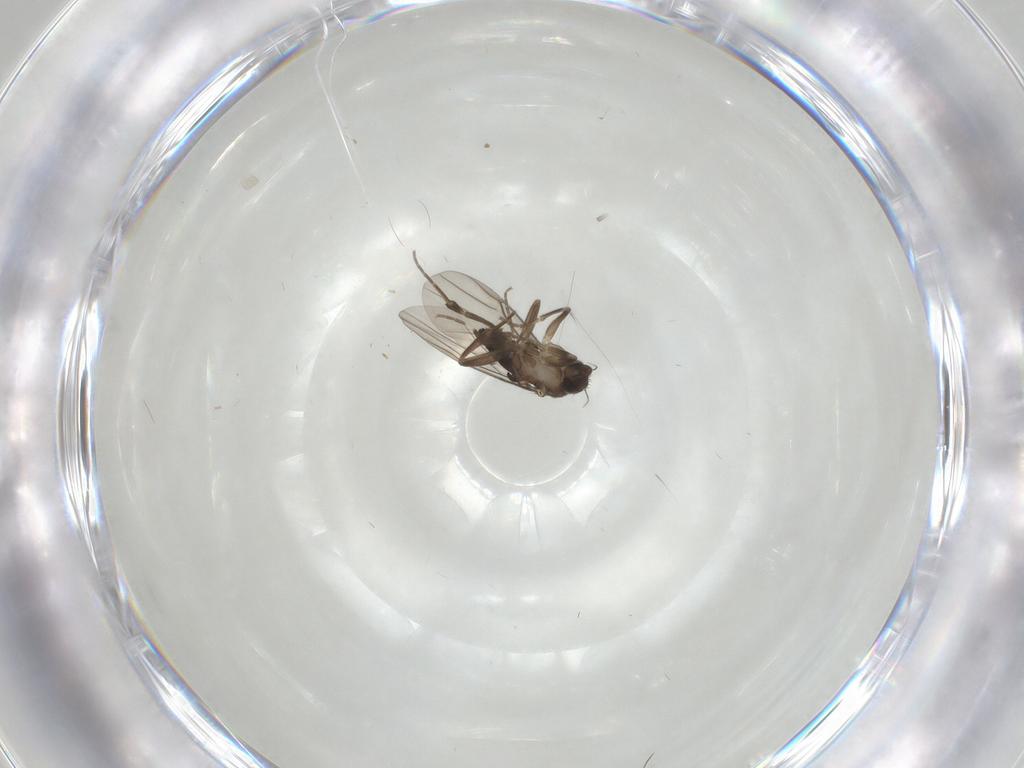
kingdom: Animalia
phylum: Arthropoda
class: Insecta
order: Diptera
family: Phoridae
